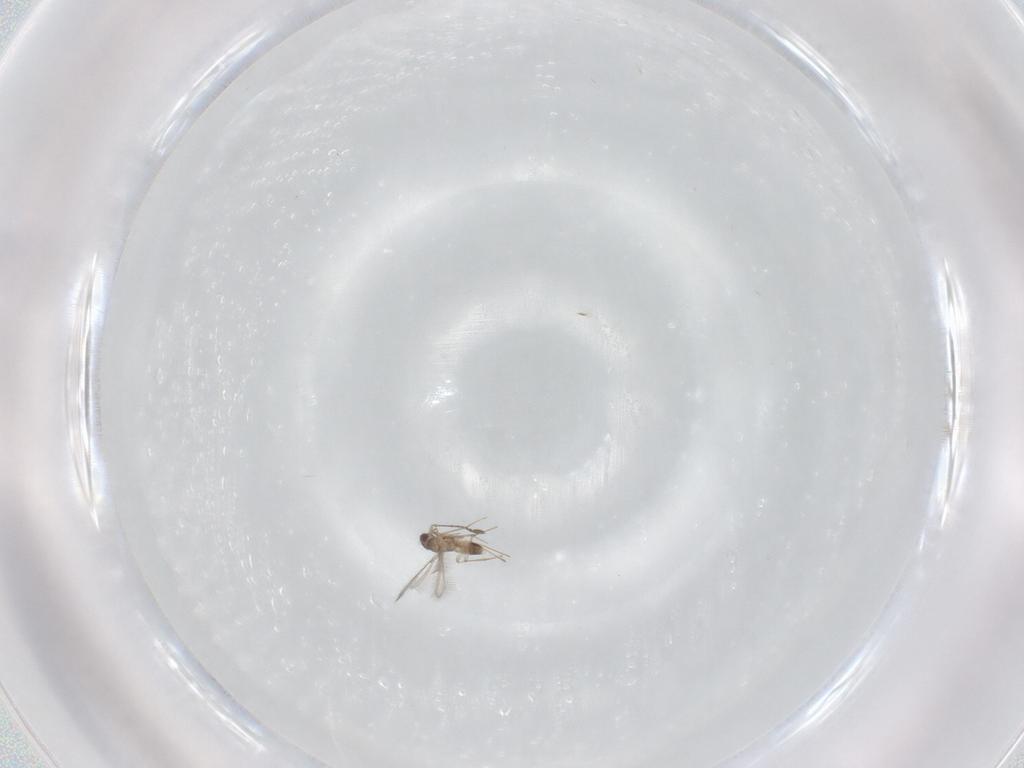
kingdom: Animalia
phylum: Arthropoda
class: Insecta
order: Hymenoptera
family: Mymaridae
